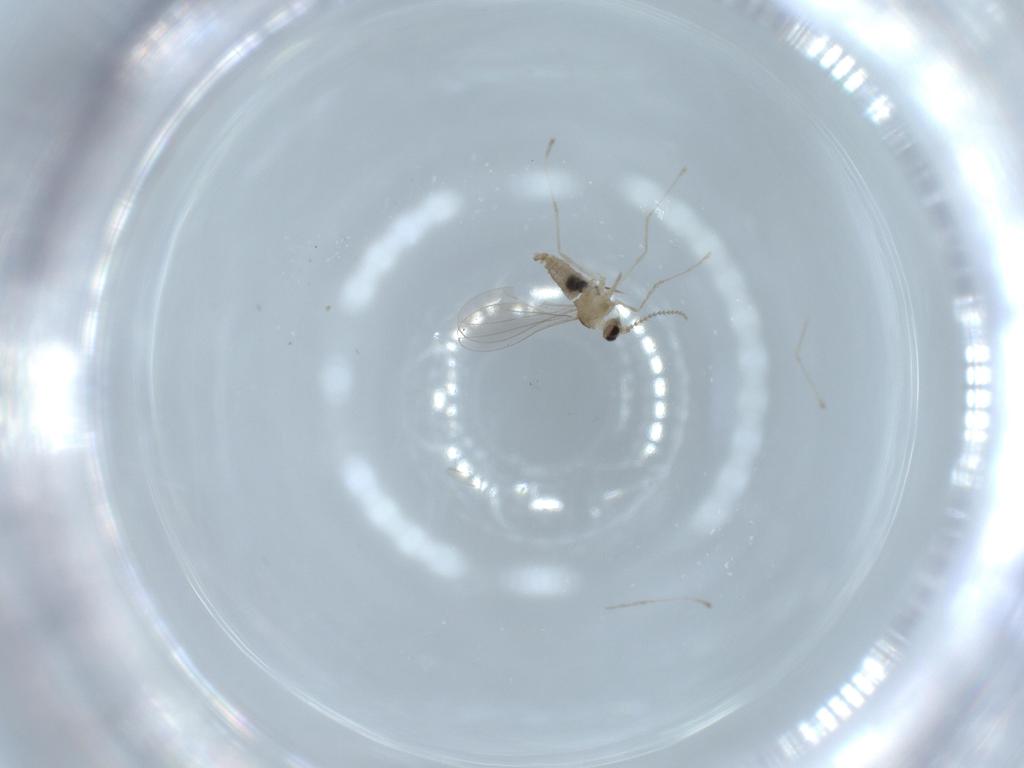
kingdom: Animalia
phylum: Arthropoda
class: Insecta
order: Diptera
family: Cecidomyiidae
